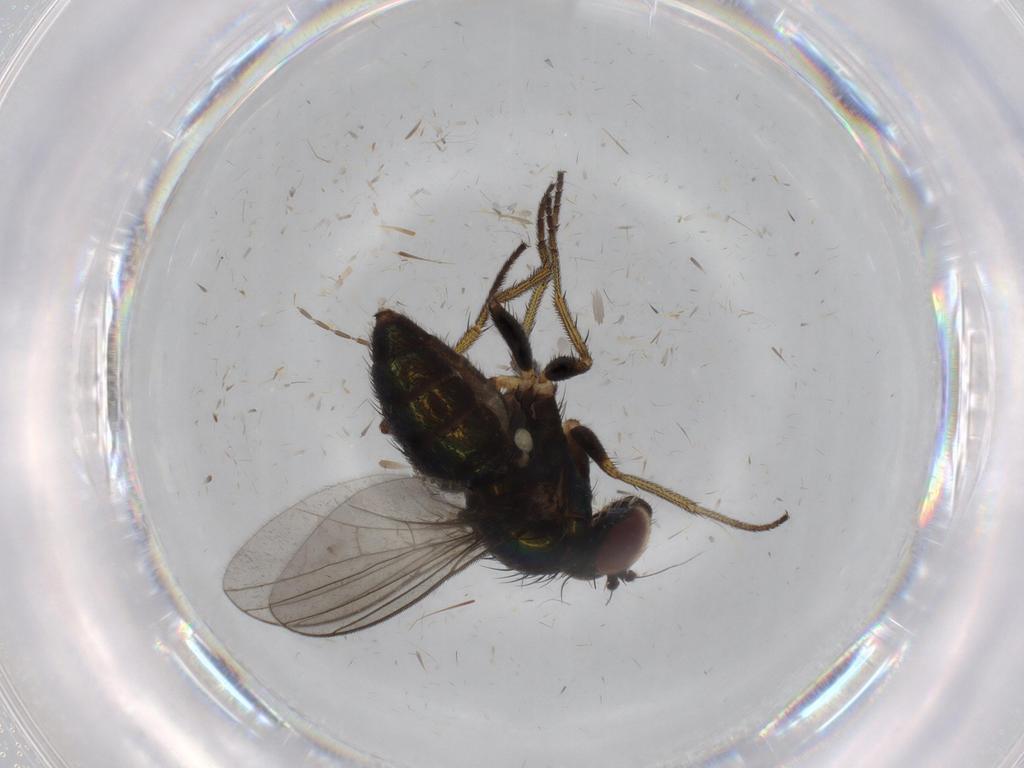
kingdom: Animalia
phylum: Arthropoda
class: Insecta
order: Diptera
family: Dolichopodidae
